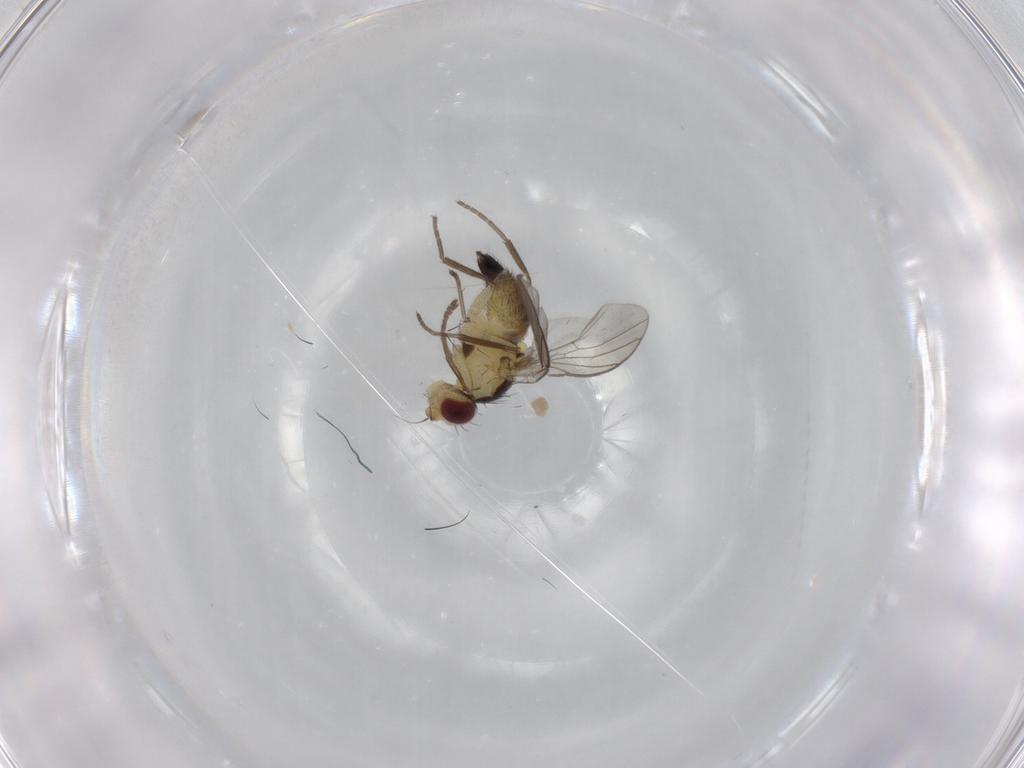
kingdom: Animalia
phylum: Arthropoda
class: Insecta
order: Diptera
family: Agromyzidae
